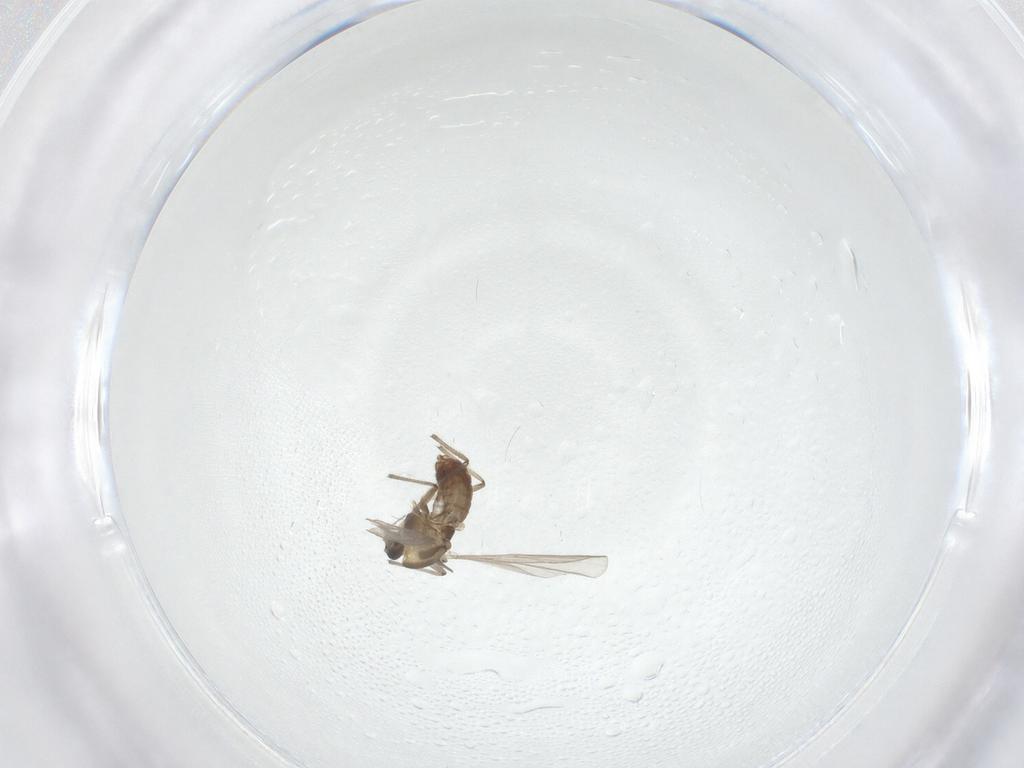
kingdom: Animalia
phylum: Arthropoda
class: Insecta
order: Diptera
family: Chironomidae
